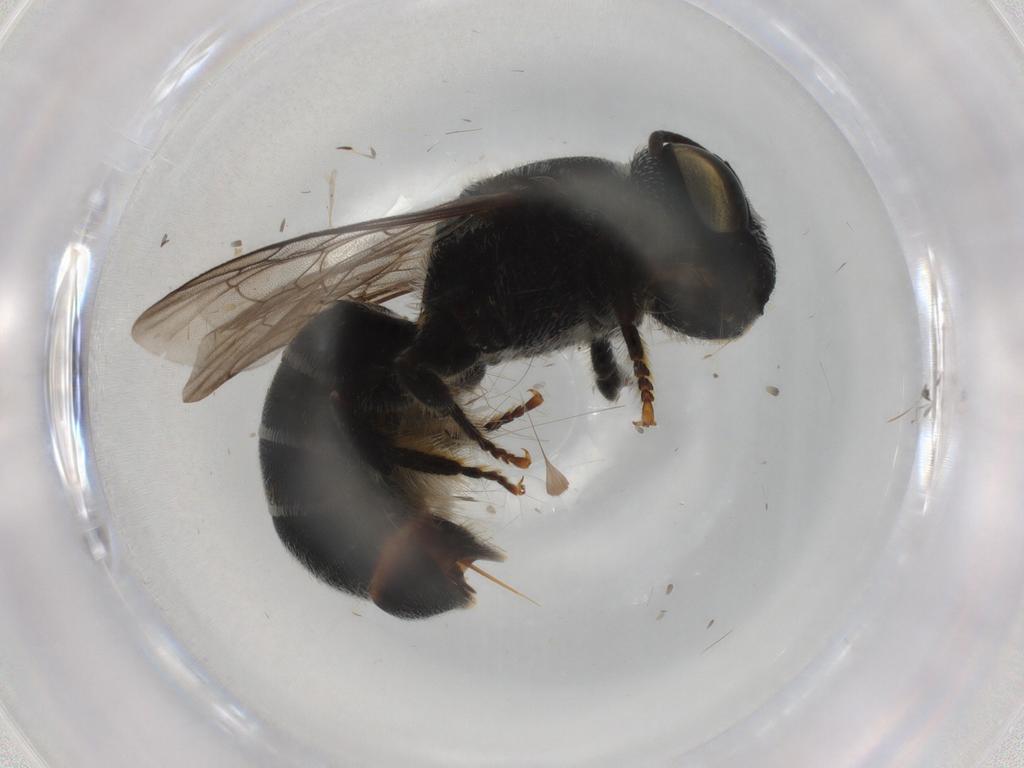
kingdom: Animalia
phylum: Arthropoda
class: Insecta
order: Hymenoptera
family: Megachilidae
